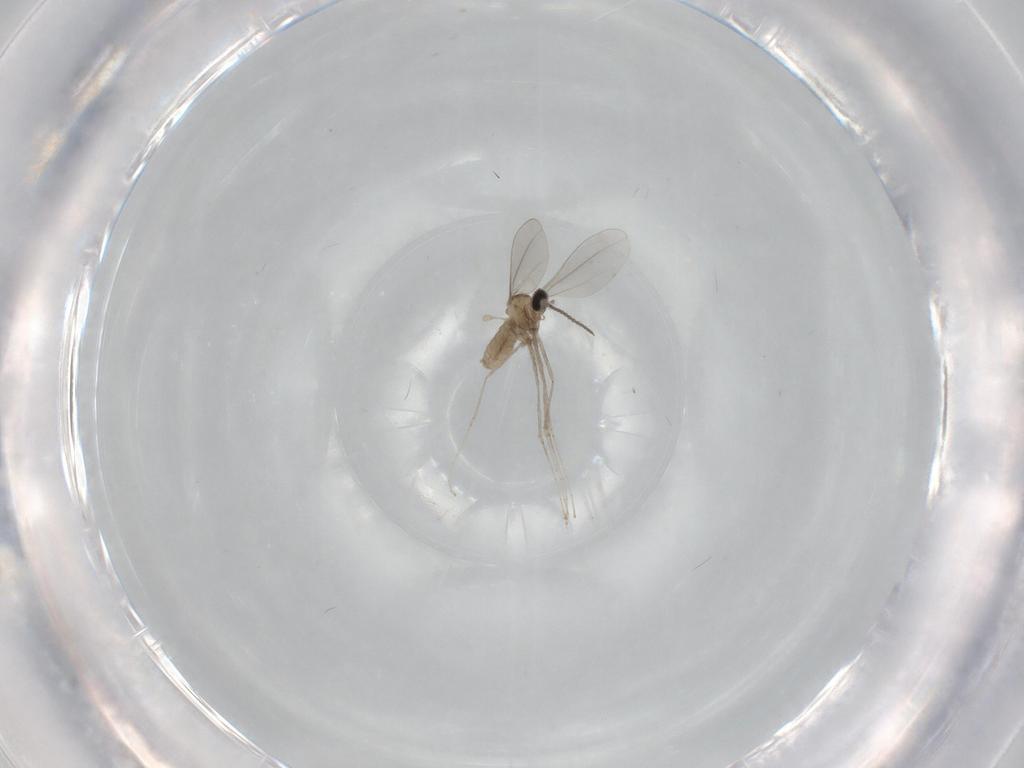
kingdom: Animalia
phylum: Arthropoda
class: Insecta
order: Diptera
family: Cecidomyiidae
